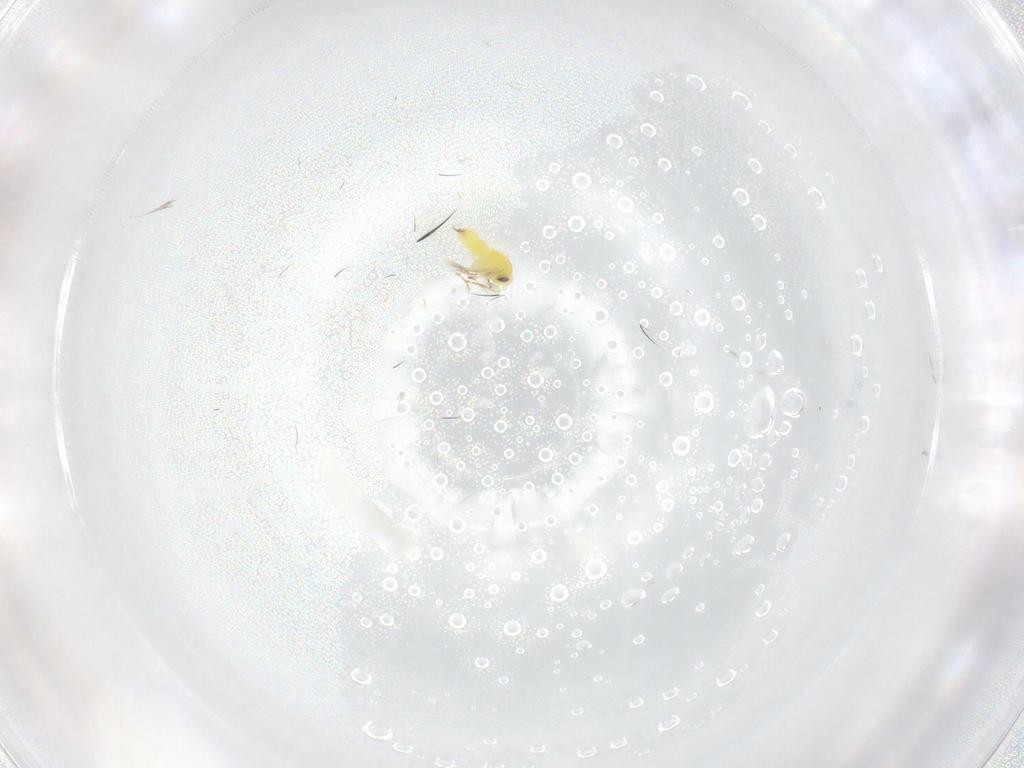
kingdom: Animalia
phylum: Arthropoda
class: Insecta
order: Hemiptera
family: Aleyrodidae
